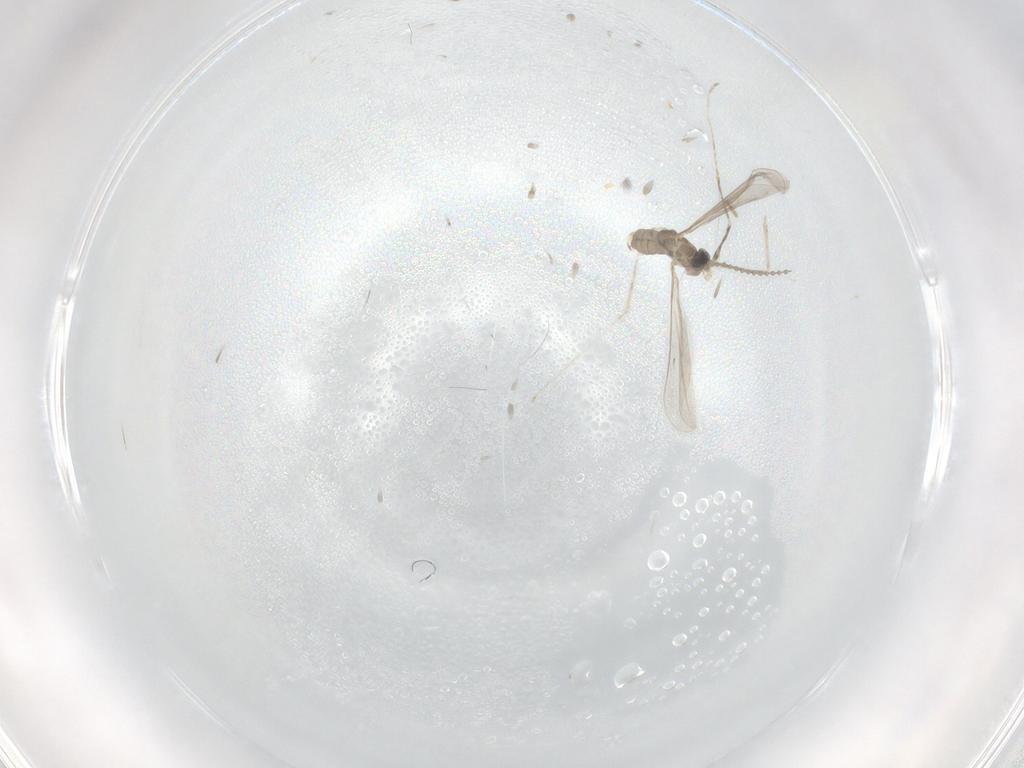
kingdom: Animalia
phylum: Arthropoda
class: Insecta
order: Diptera
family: Cecidomyiidae
